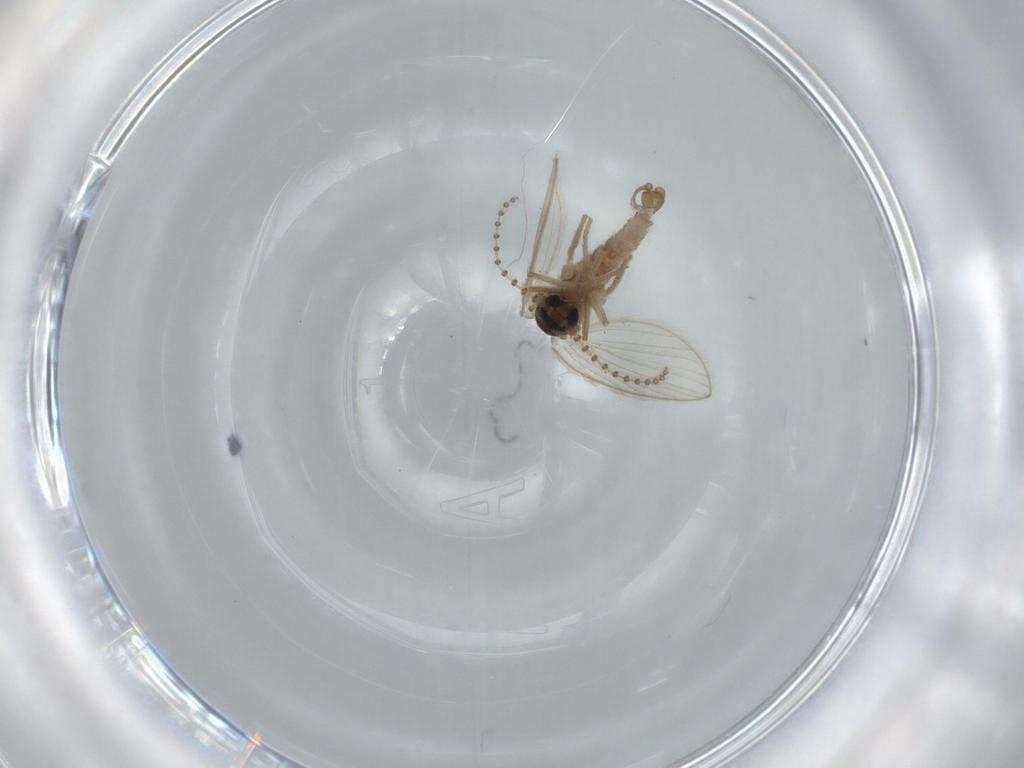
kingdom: Animalia
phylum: Arthropoda
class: Insecta
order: Diptera
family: Psychodidae
